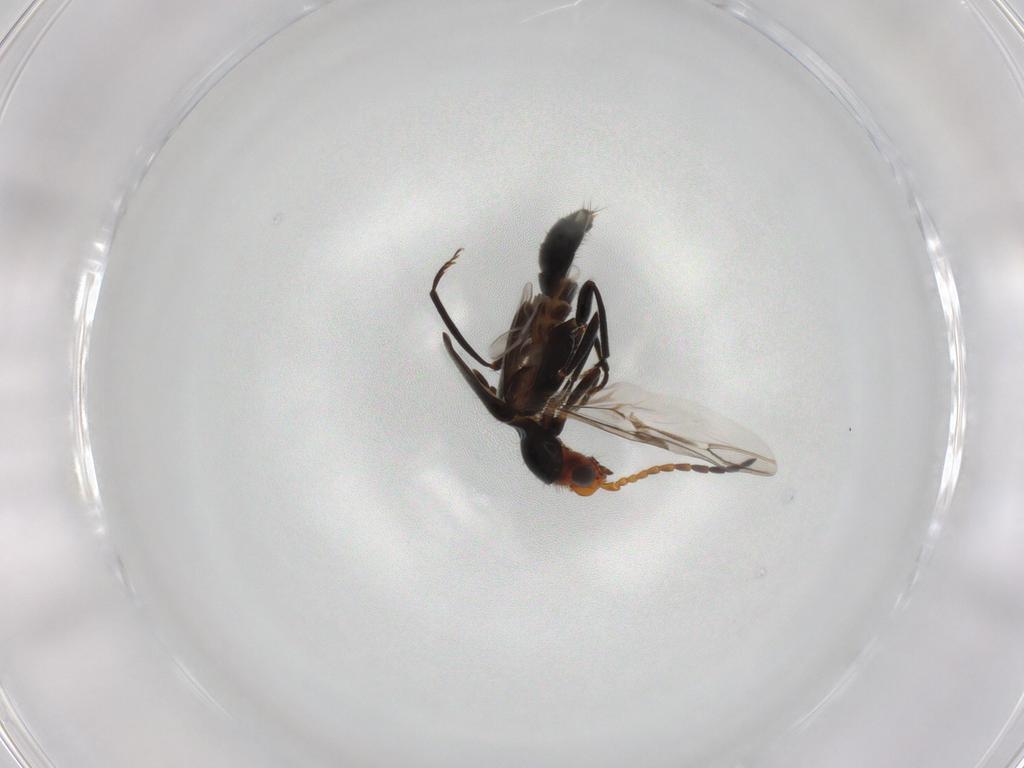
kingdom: Animalia
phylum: Arthropoda
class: Insecta
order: Coleoptera
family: Melyridae
